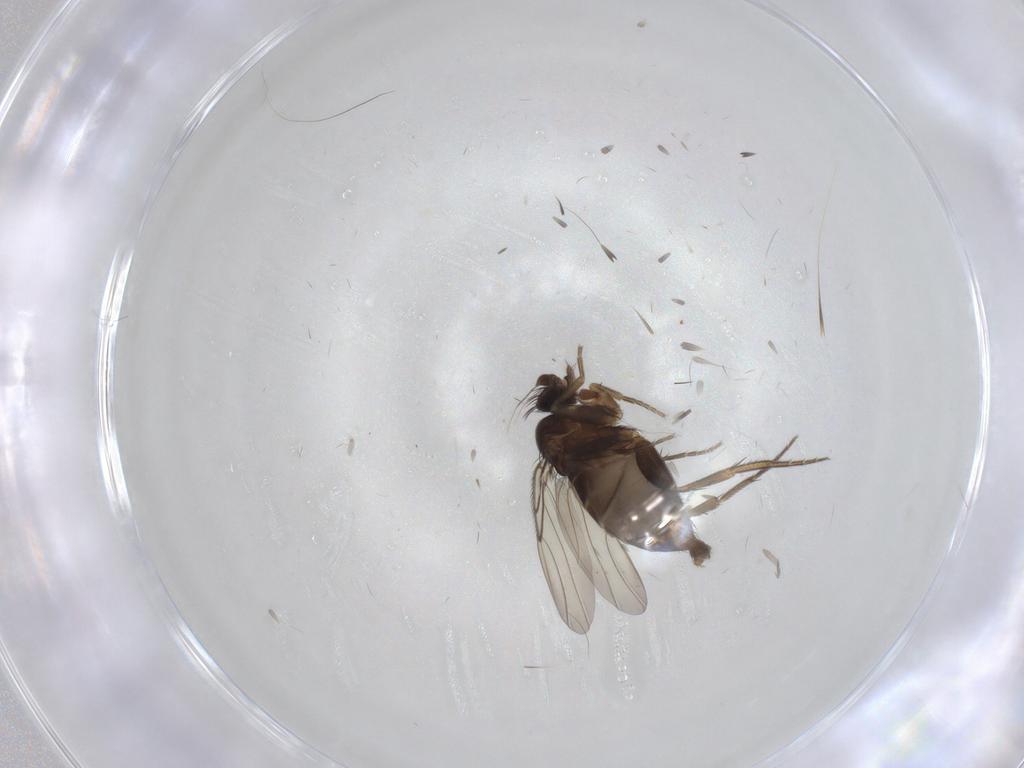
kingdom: Animalia
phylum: Arthropoda
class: Insecta
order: Diptera
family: Phoridae
